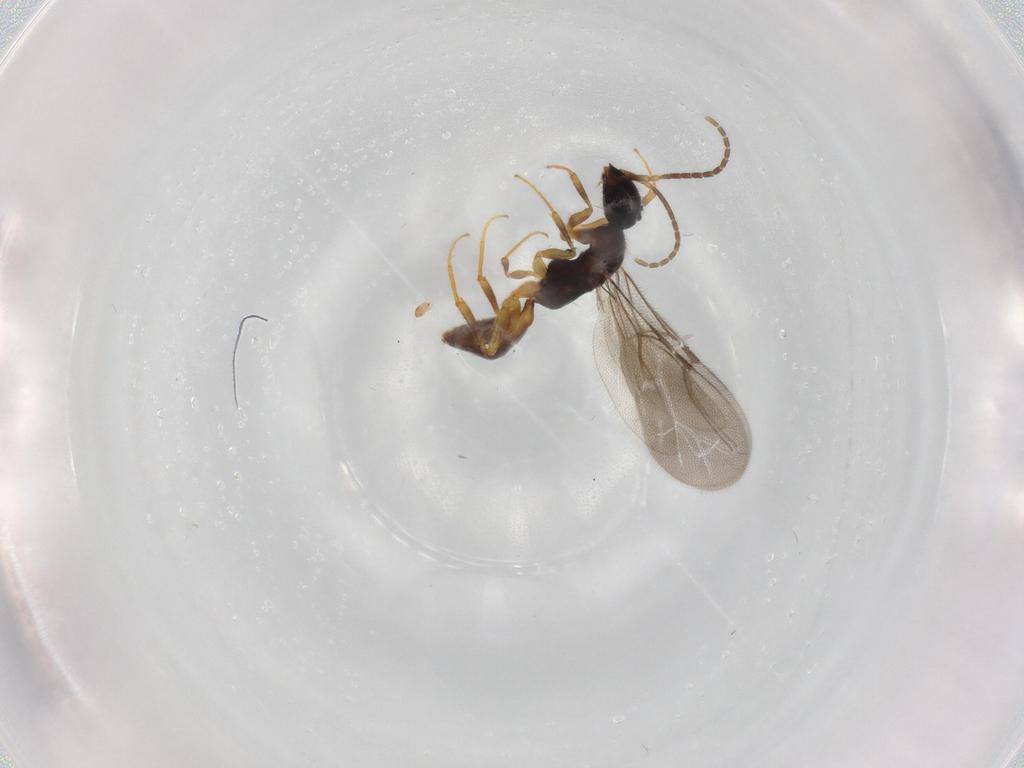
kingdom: Animalia
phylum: Arthropoda
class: Insecta
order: Hymenoptera
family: Bethylidae
